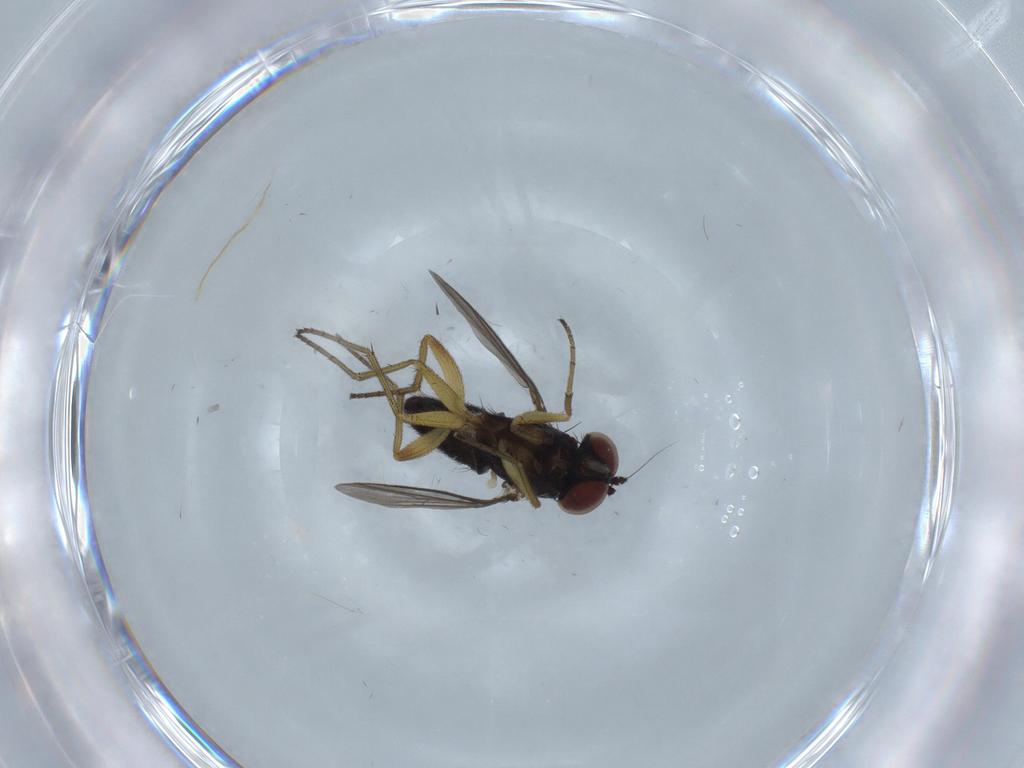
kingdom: Animalia
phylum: Arthropoda
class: Insecta
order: Diptera
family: Dolichopodidae
